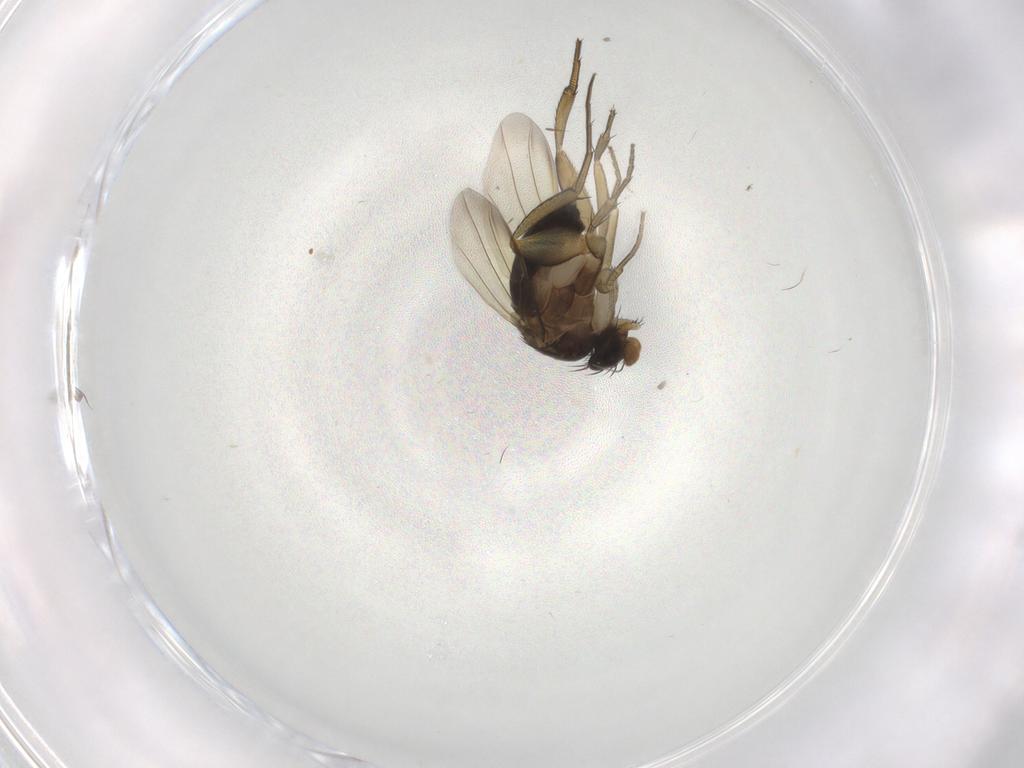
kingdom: Animalia
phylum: Arthropoda
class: Insecta
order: Diptera
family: Phoridae
